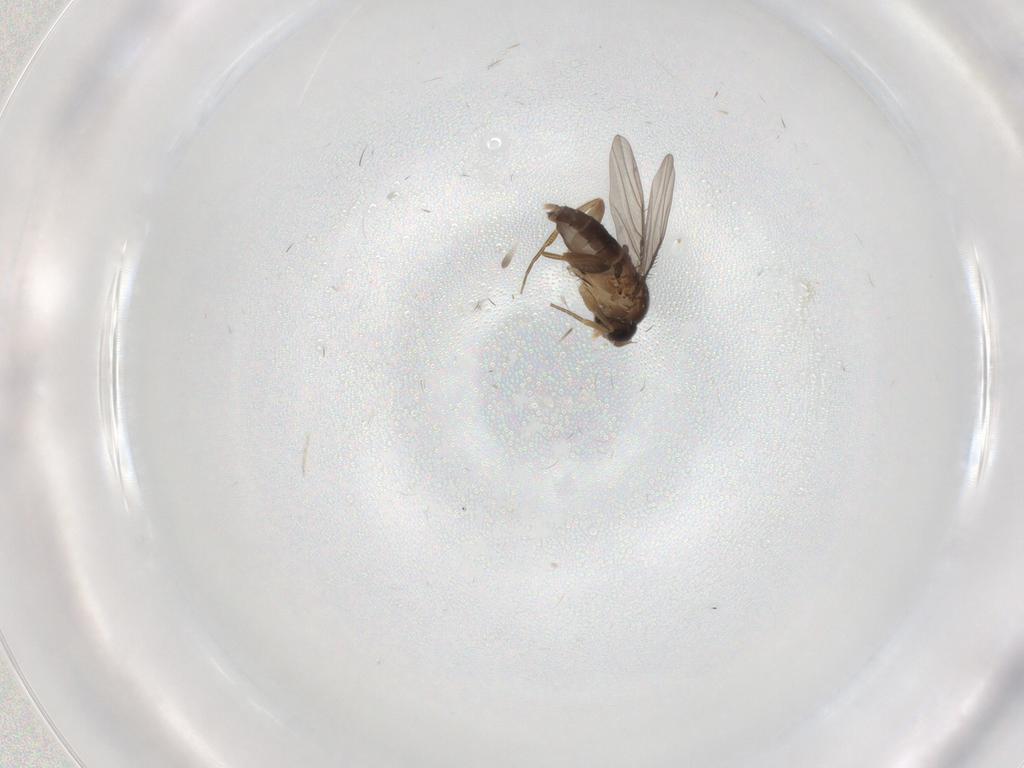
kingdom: Animalia
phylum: Arthropoda
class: Insecta
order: Diptera
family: Phoridae
